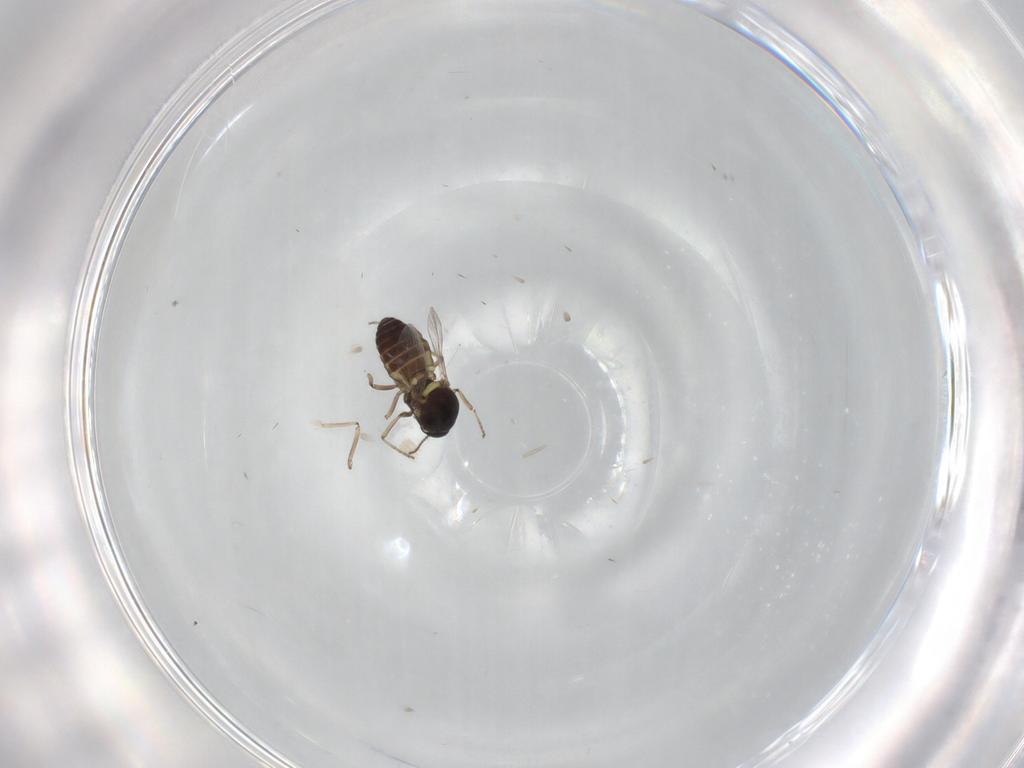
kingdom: Animalia
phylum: Arthropoda
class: Insecta
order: Diptera
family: Ceratopogonidae
